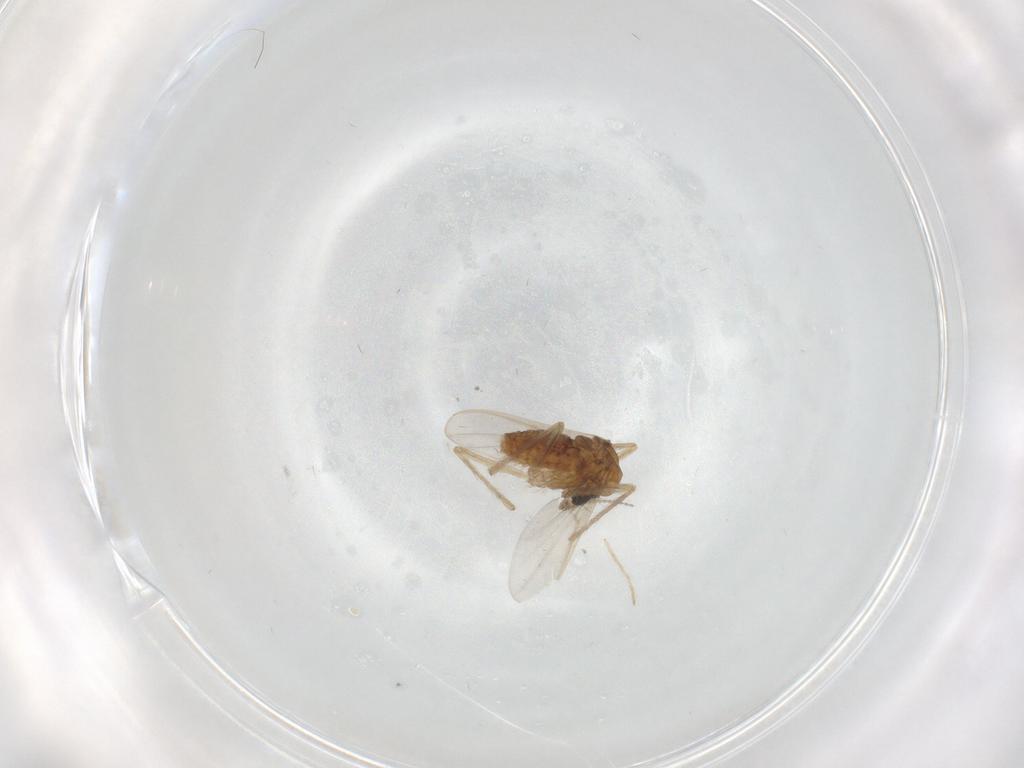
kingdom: Animalia
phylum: Arthropoda
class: Insecta
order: Diptera
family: Chironomidae
